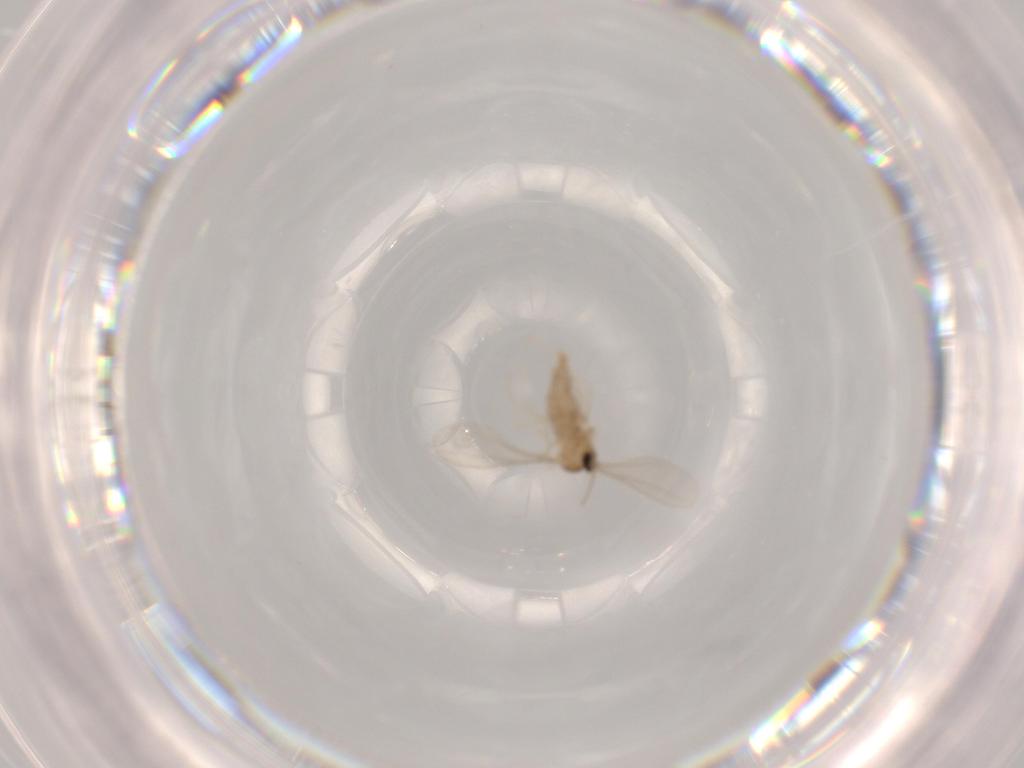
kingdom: Animalia
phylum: Arthropoda
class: Insecta
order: Diptera
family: Cecidomyiidae
